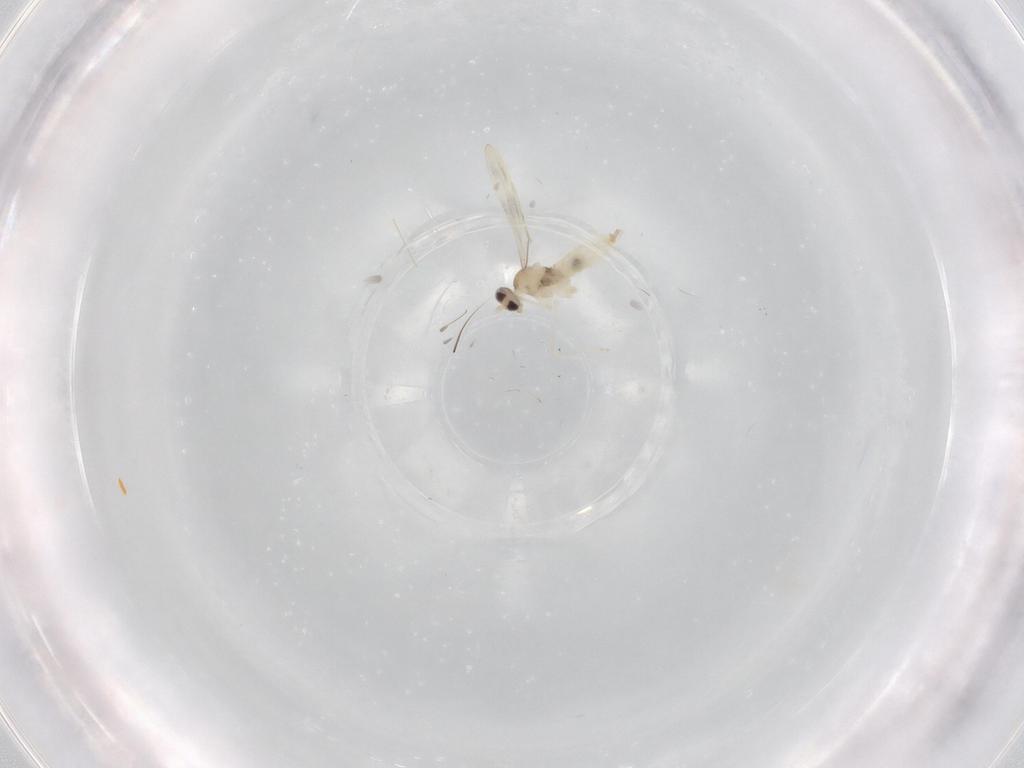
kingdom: Animalia
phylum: Arthropoda
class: Insecta
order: Diptera
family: Cecidomyiidae
